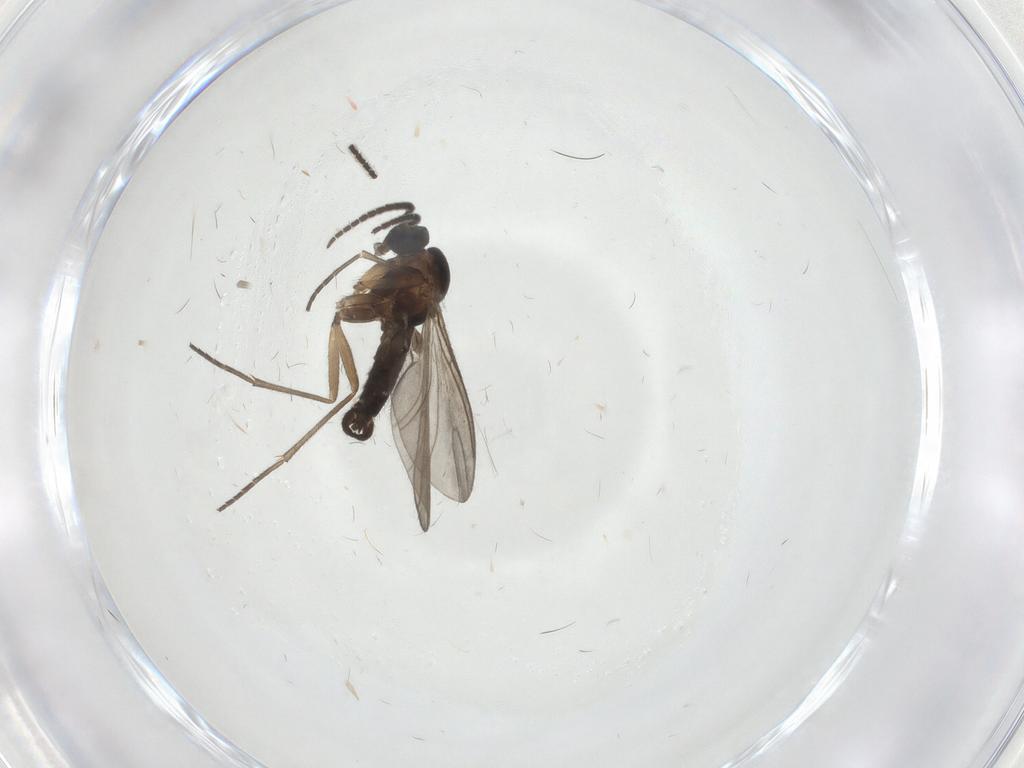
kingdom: Animalia
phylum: Arthropoda
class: Insecta
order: Diptera
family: Sciaridae
